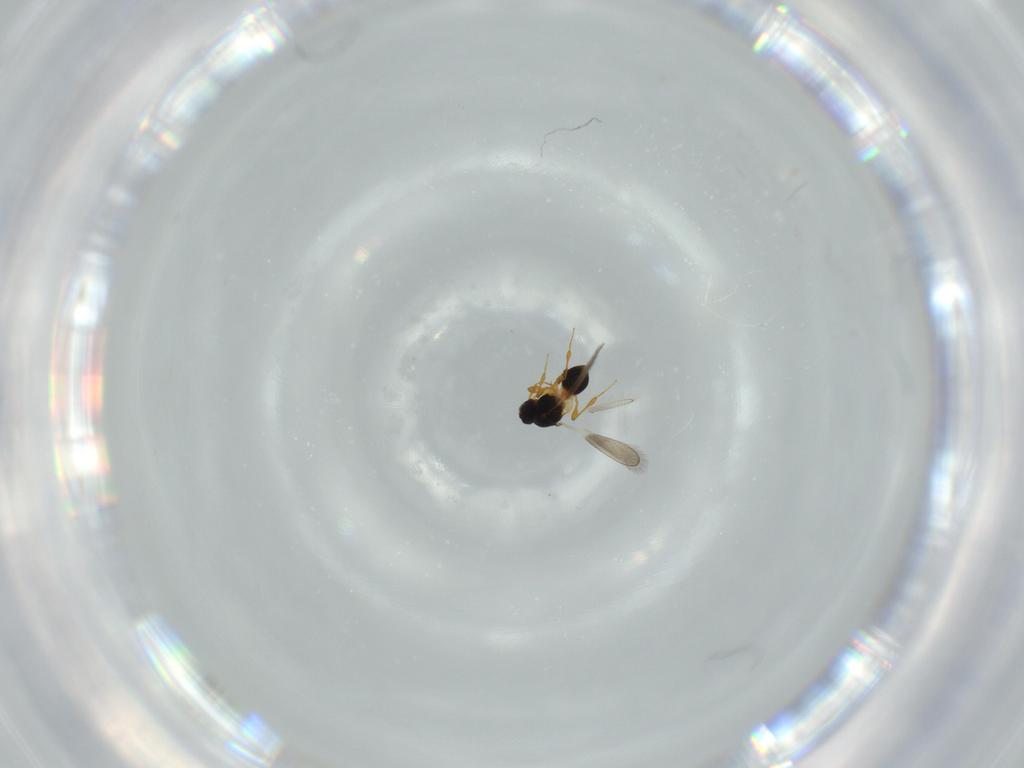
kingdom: Animalia
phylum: Arthropoda
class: Insecta
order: Hymenoptera
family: Platygastridae
